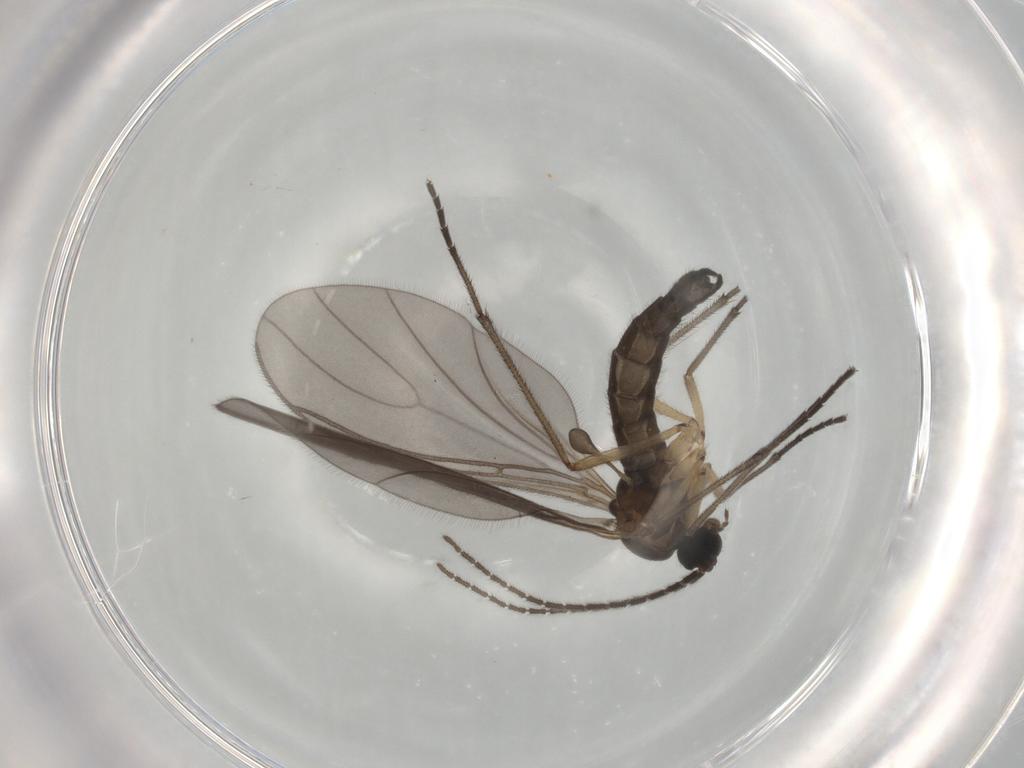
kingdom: Animalia
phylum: Arthropoda
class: Insecta
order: Diptera
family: Sciaridae
